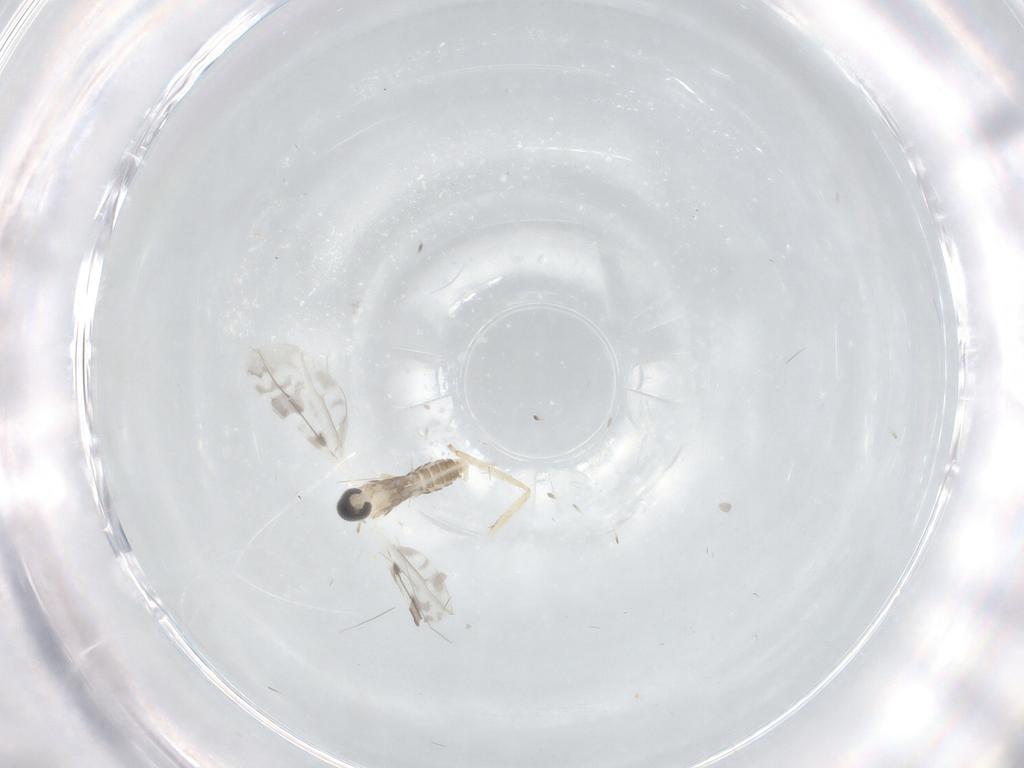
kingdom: Animalia
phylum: Arthropoda
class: Insecta
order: Diptera
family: Cecidomyiidae
